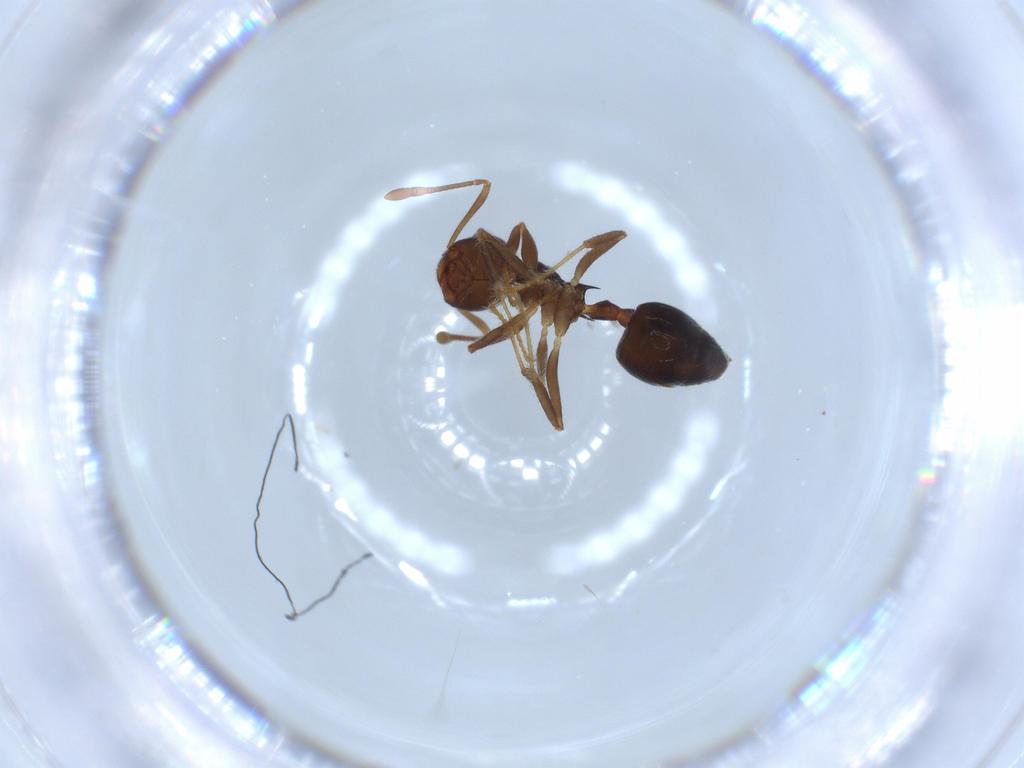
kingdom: Animalia
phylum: Arthropoda
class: Insecta
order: Hymenoptera
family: Formicidae
